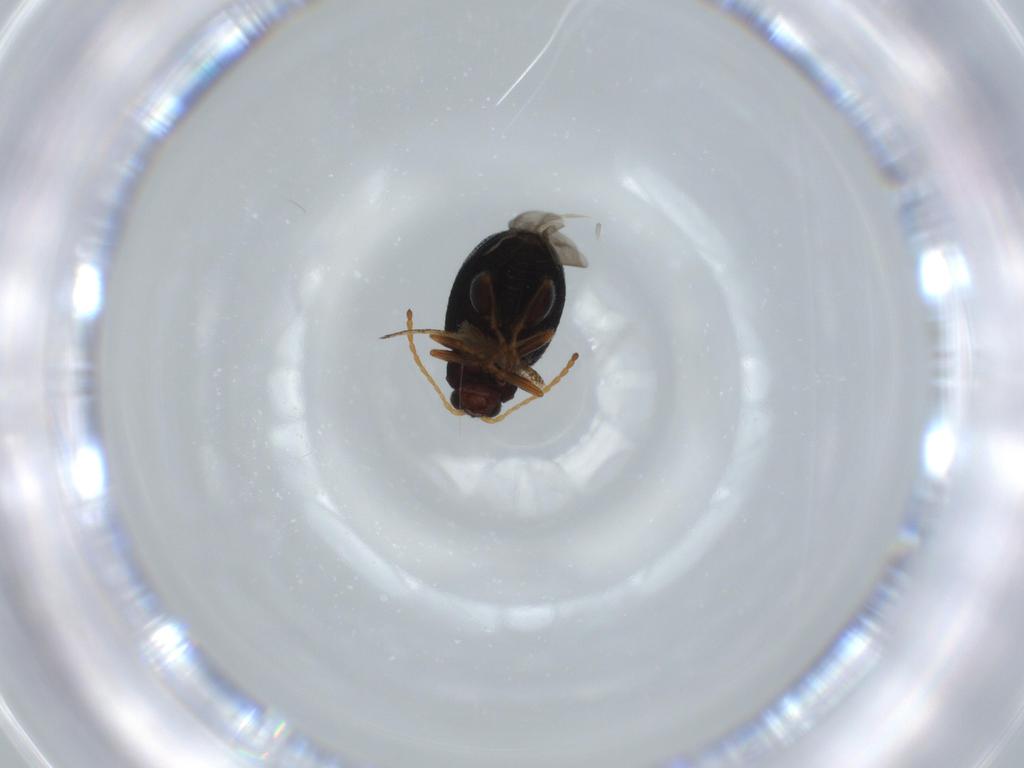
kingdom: Animalia
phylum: Arthropoda
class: Insecta
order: Coleoptera
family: Chrysomelidae
